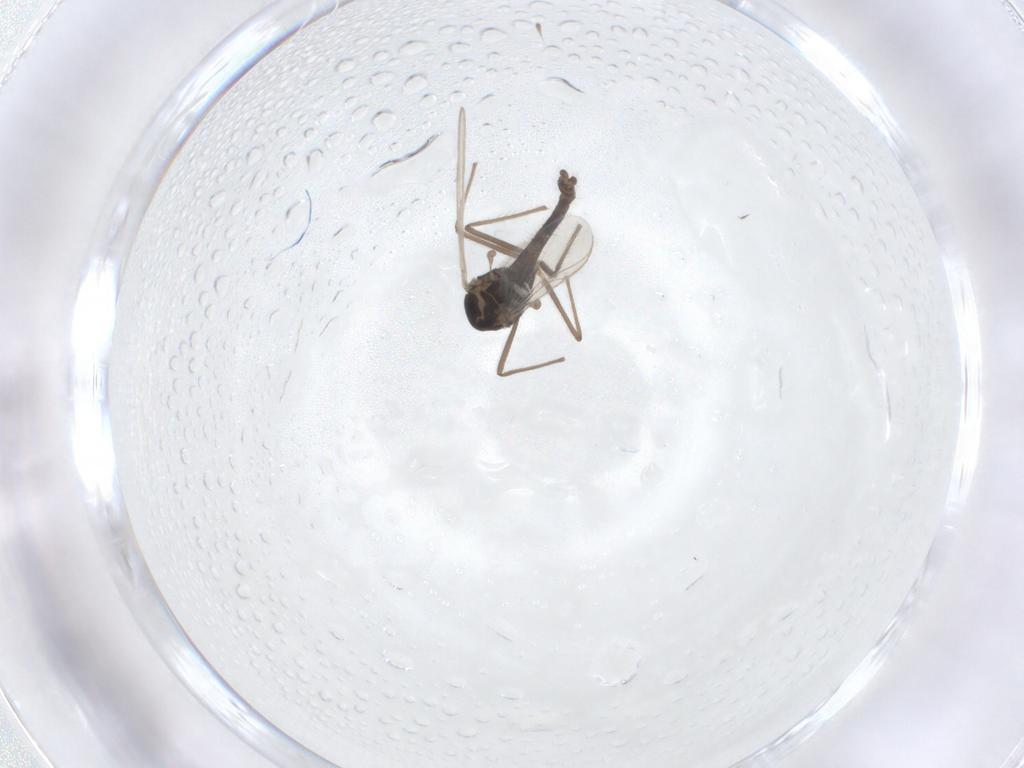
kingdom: Animalia
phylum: Arthropoda
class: Insecta
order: Diptera
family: Chironomidae
